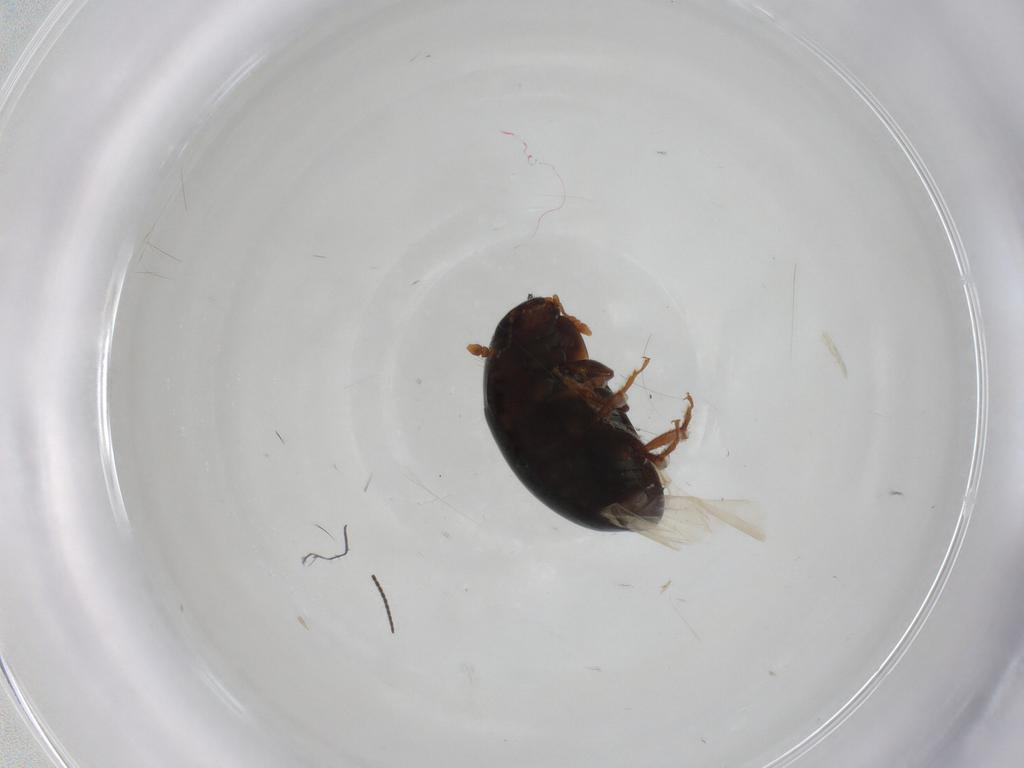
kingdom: Animalia
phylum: Arthropoda
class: Insecta
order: Coleoptera
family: Phalacridae
